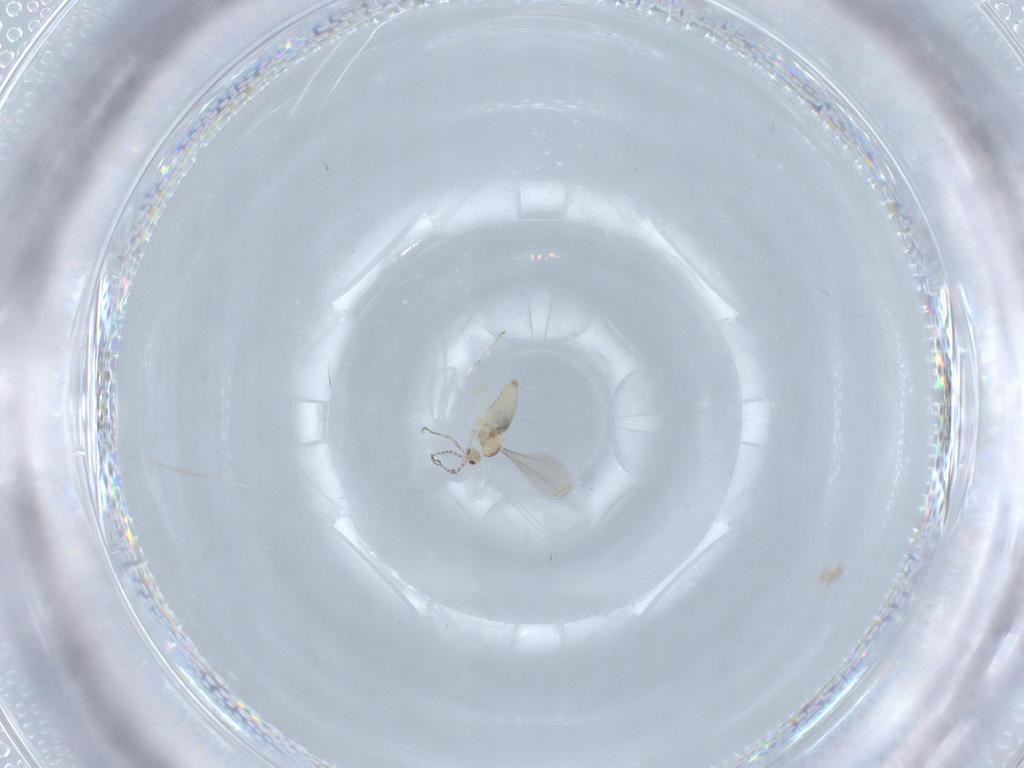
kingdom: Animalia
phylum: Arthropoda
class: Insecta
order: Diptera
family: Cecidomyiidae
